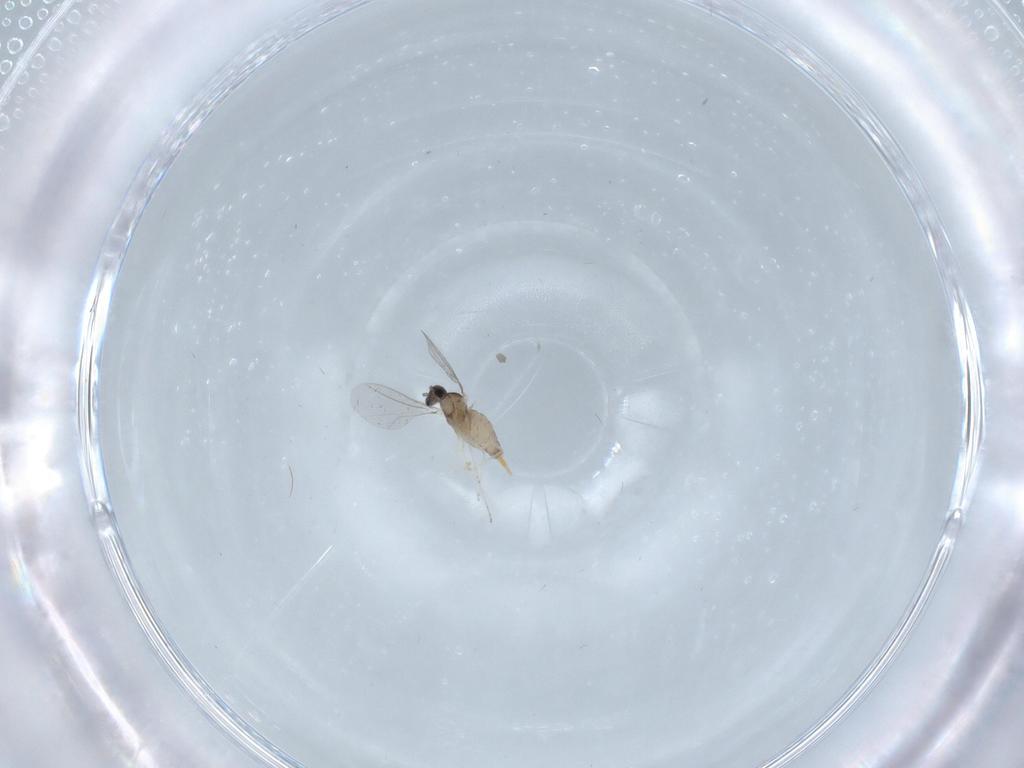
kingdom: Animalia
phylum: Arthropoda
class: Insecta
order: Diptera
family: Cecidomyiidae
